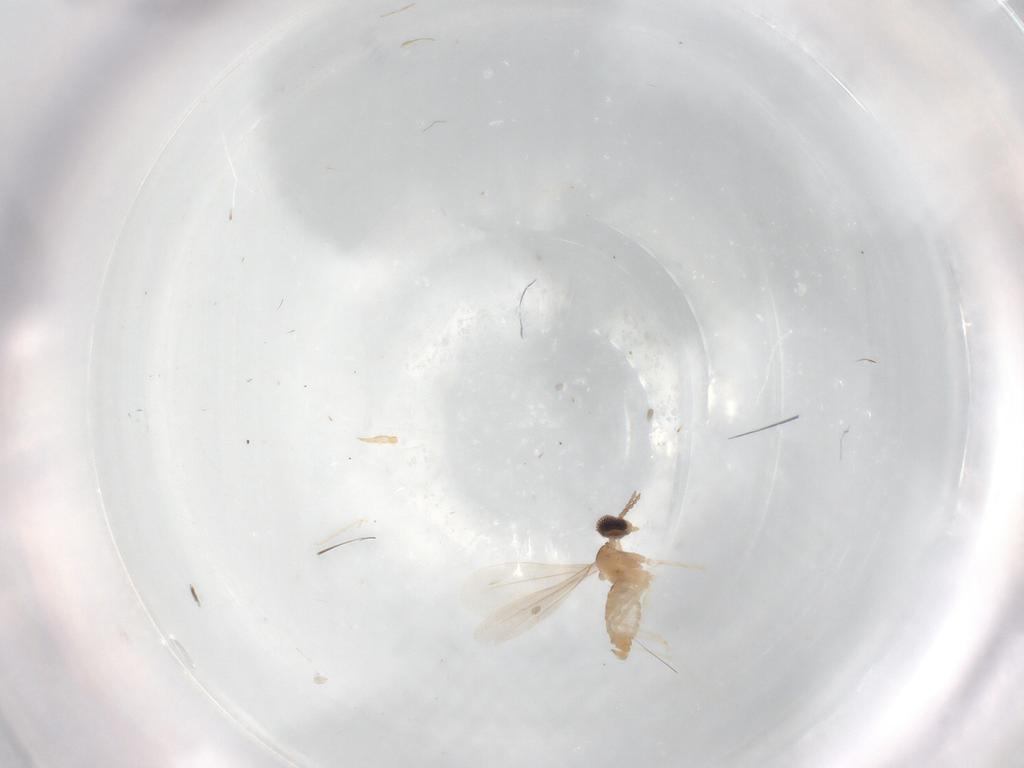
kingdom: Animalia
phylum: Arthropoda
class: Insecta
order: Diptera
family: Cecidomyiidae
